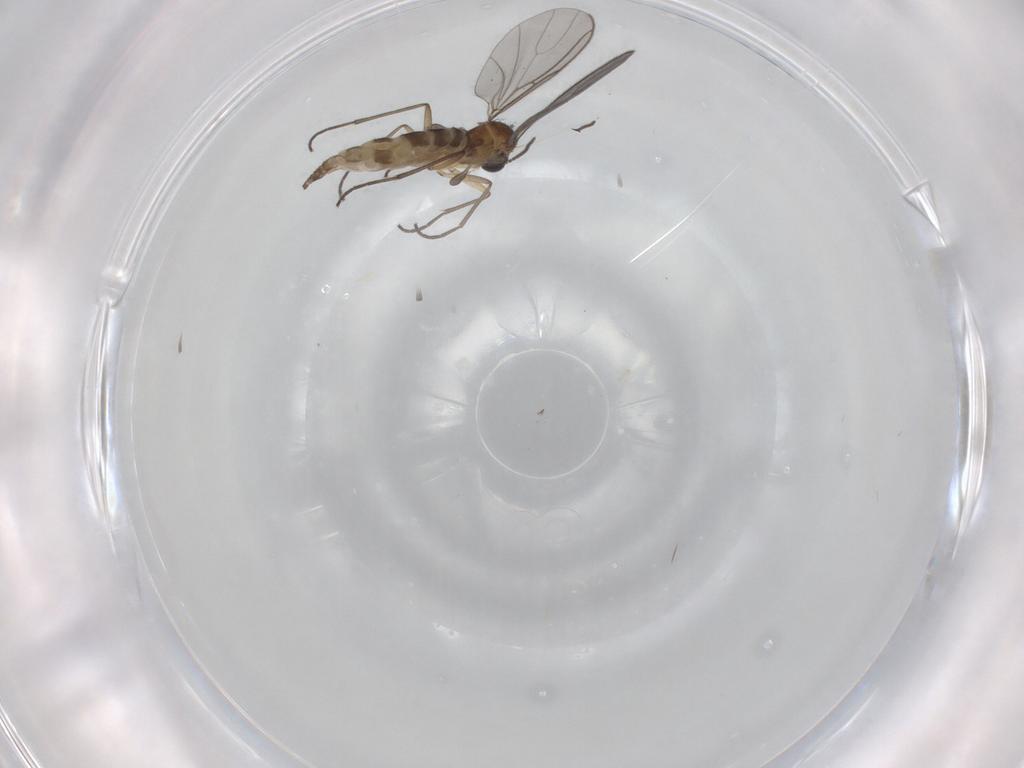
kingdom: Animalia
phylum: Arthropoda
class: Insecta
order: Diptera
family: Sciaridae
